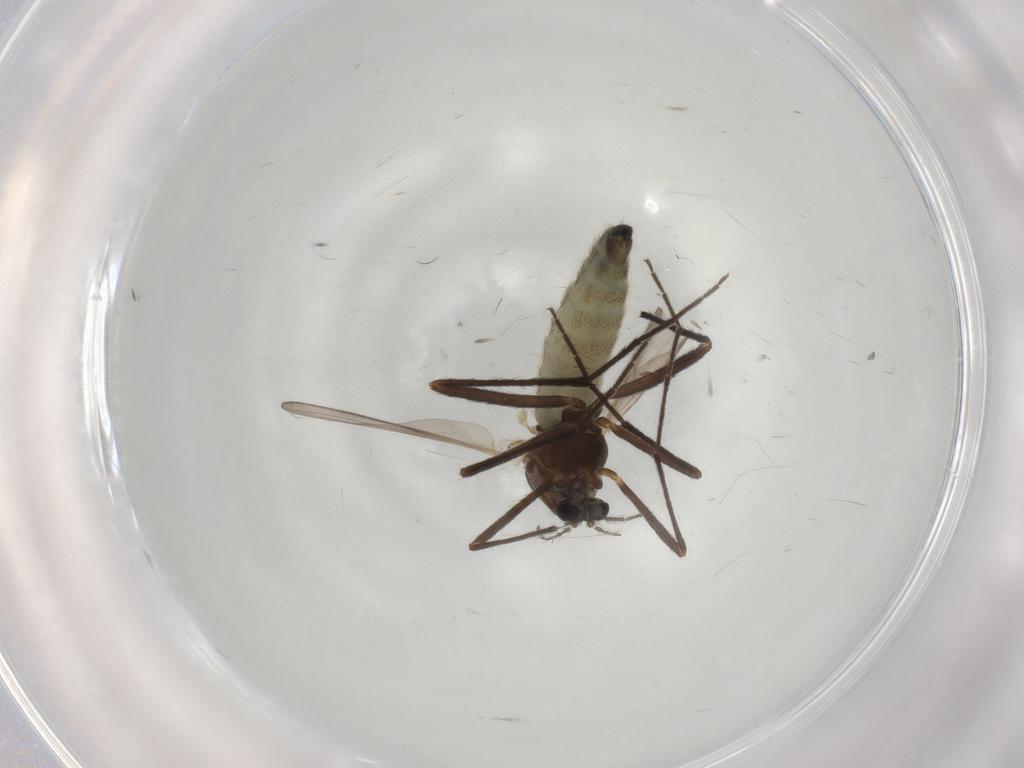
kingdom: Animalia
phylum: Arthropoda
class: Insecta
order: Diptera
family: Chironomidae
